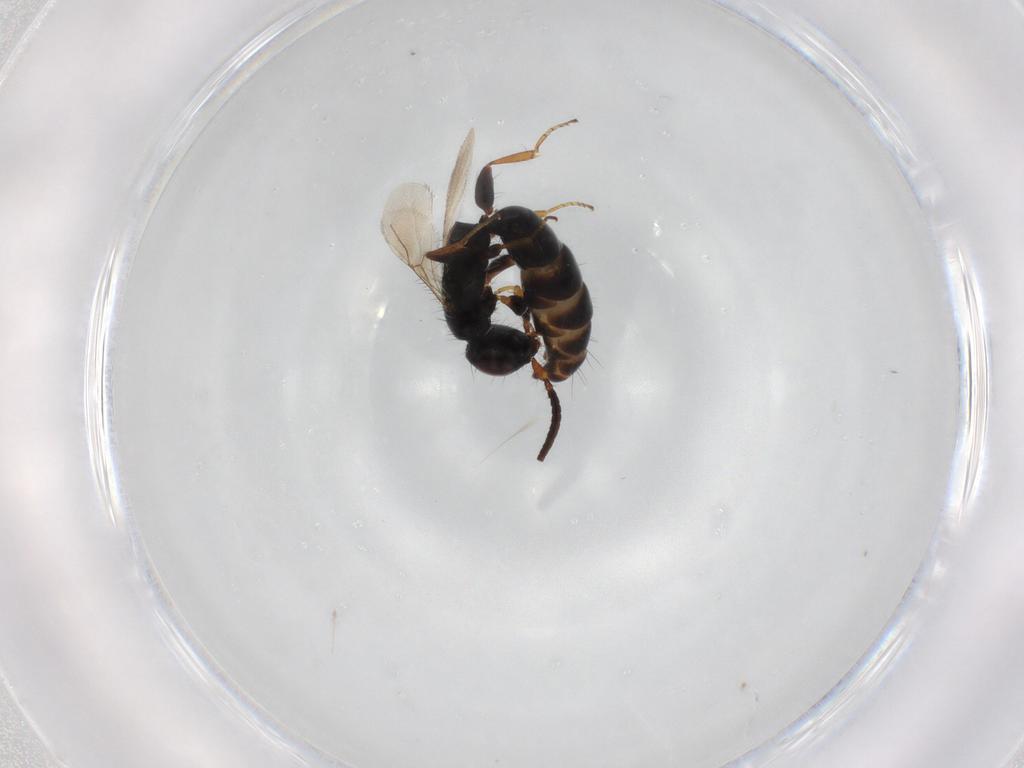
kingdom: Animalia
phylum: Arthropoda
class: Insecta
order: Hymenoptera
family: Bethylidae
